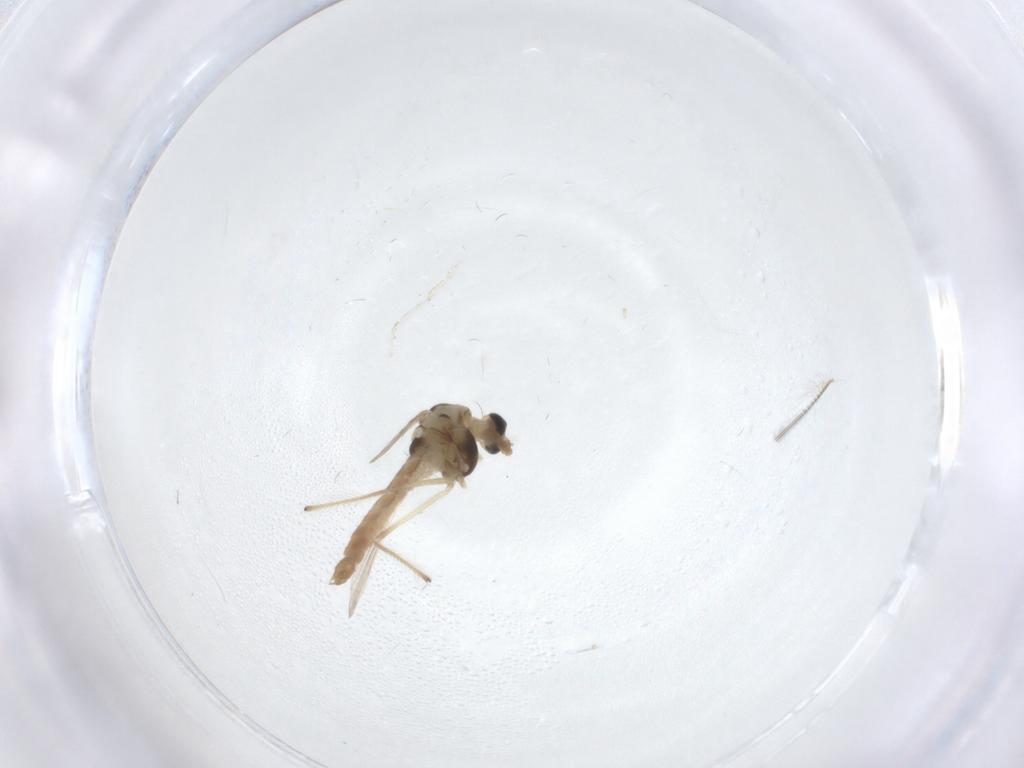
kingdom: Animalia
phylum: Arthropoda
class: Insecta
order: Diptera
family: Chironomidae
